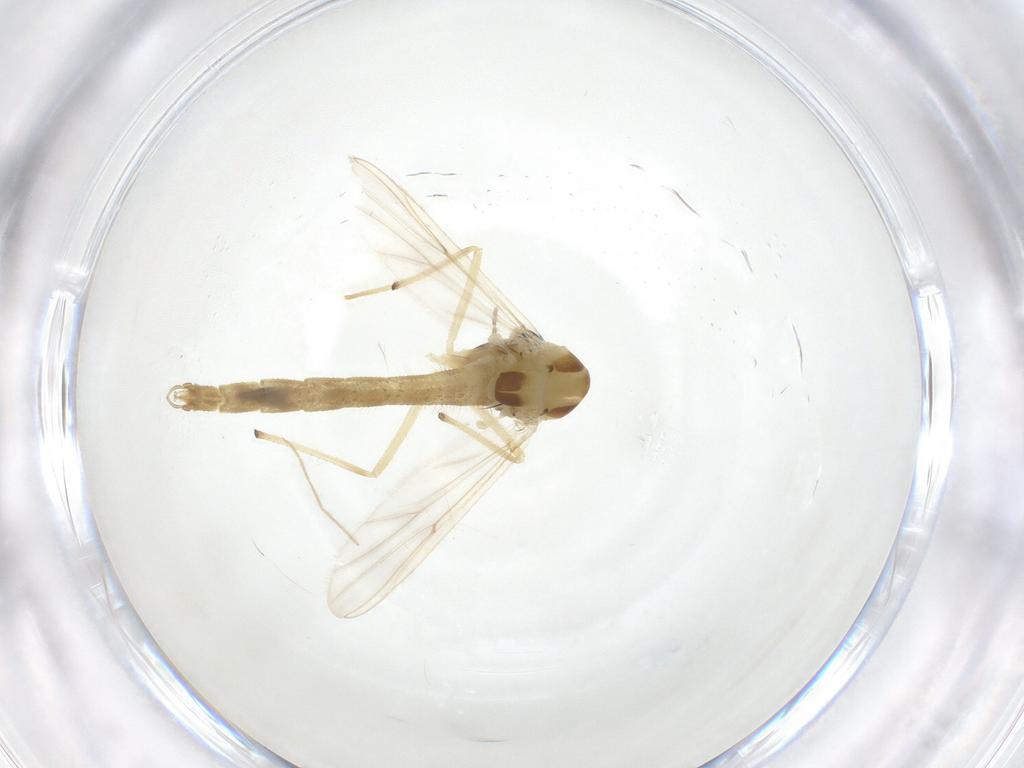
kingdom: Animalia
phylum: Arthropoda
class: Insecta
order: Diptera
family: Chironomidae
